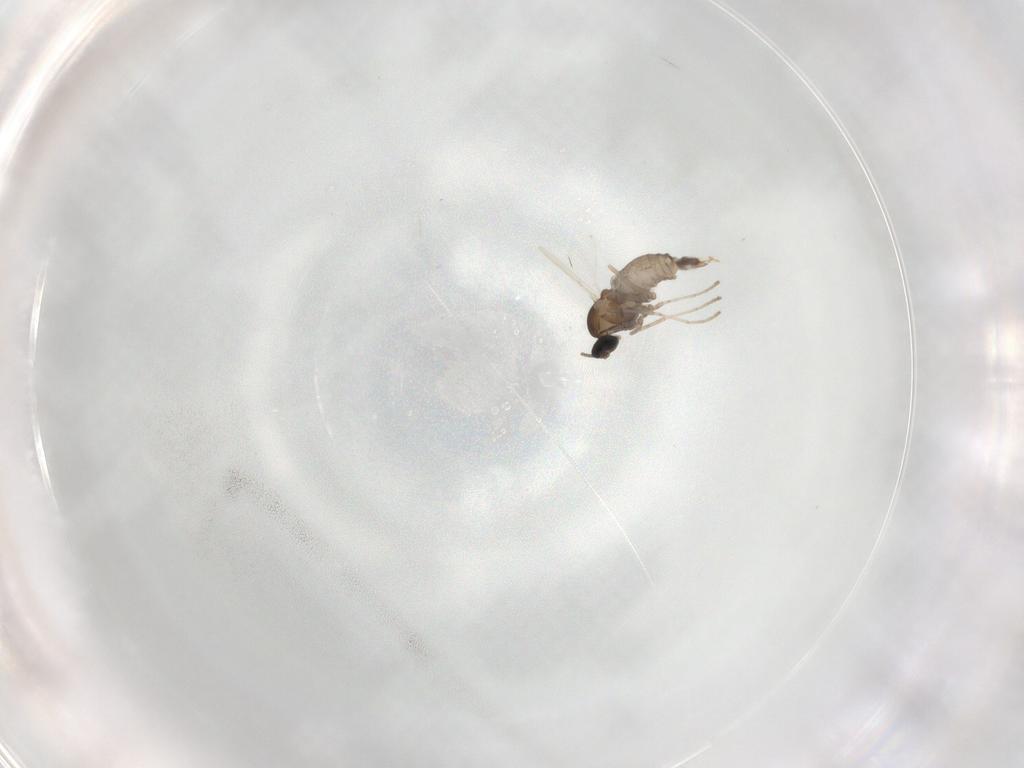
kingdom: Animalia
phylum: Arthropoda
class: Insecta
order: Diptera
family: Cecidomyiidae
